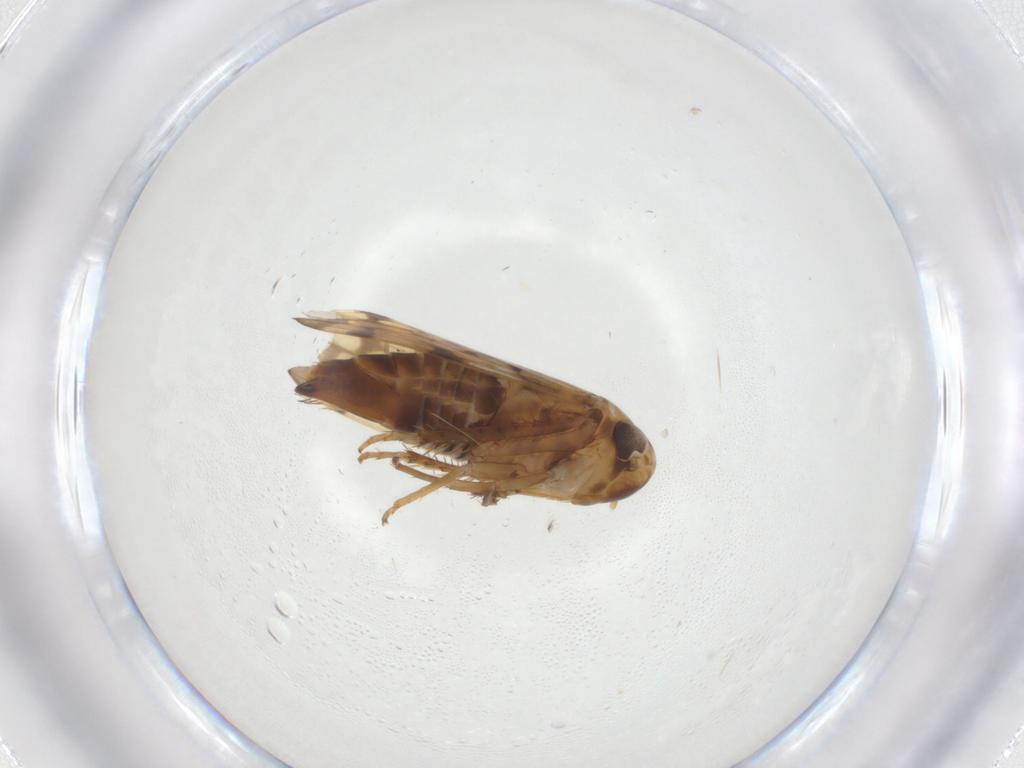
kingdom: Animalia
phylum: Arthropoda
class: Insecta
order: Hemiptera
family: Cicadellidae
